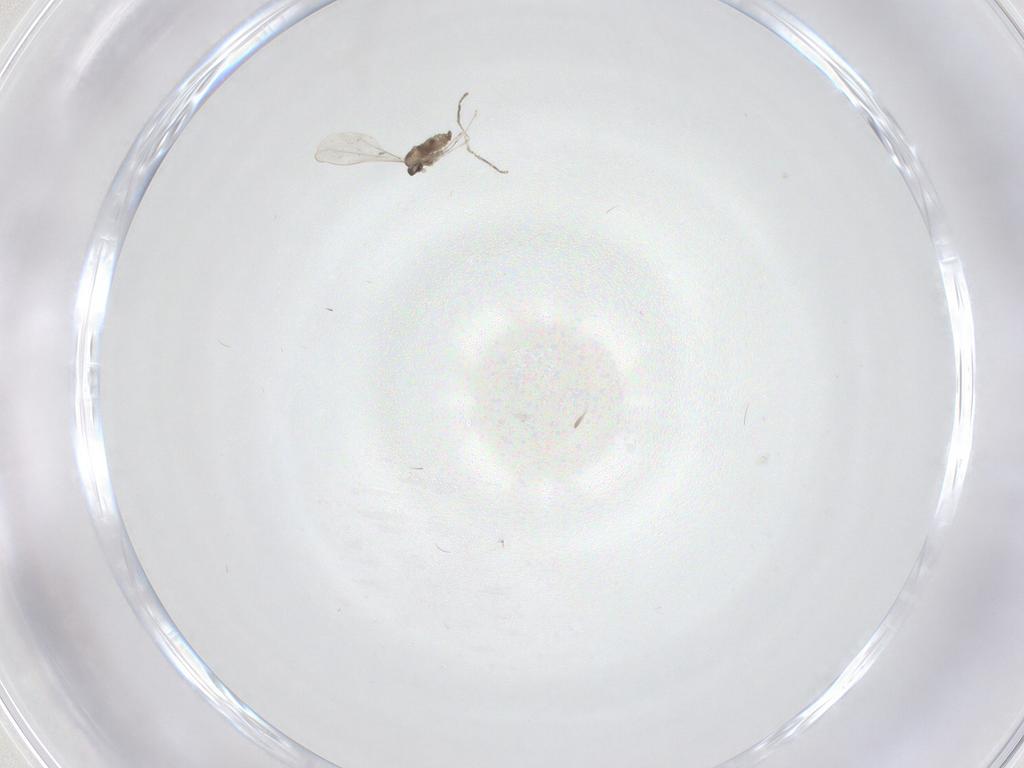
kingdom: Animalia
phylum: Arthropoda
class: Insecta
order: Diptera
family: Cecidomyiidae
